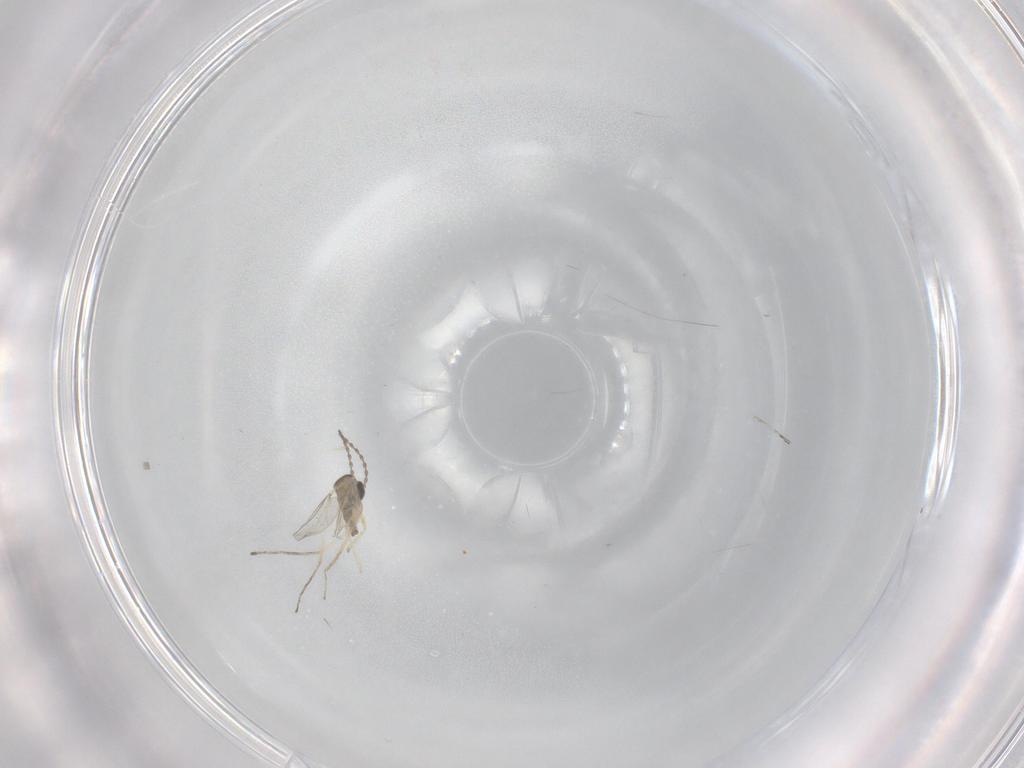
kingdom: Animalia
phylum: Arthropoda
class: Insecta
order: Diptera
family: Cecidomyiidae
